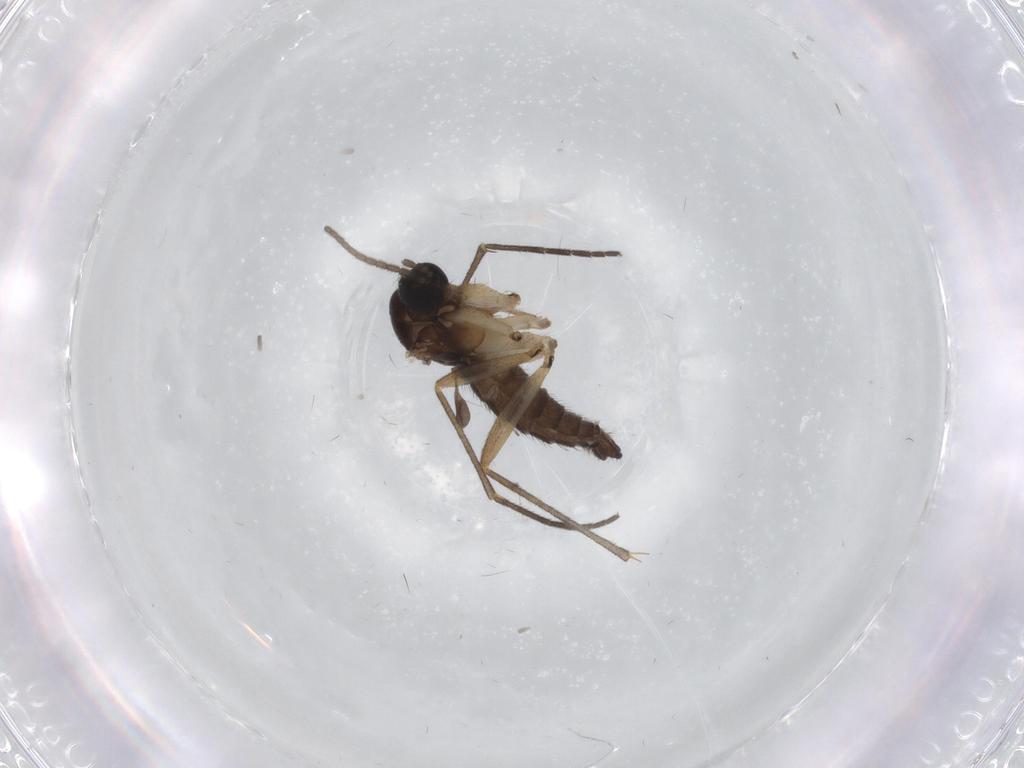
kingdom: Animalia
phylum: Arthropoda
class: Insecta
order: Diptera
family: Sciaridae
